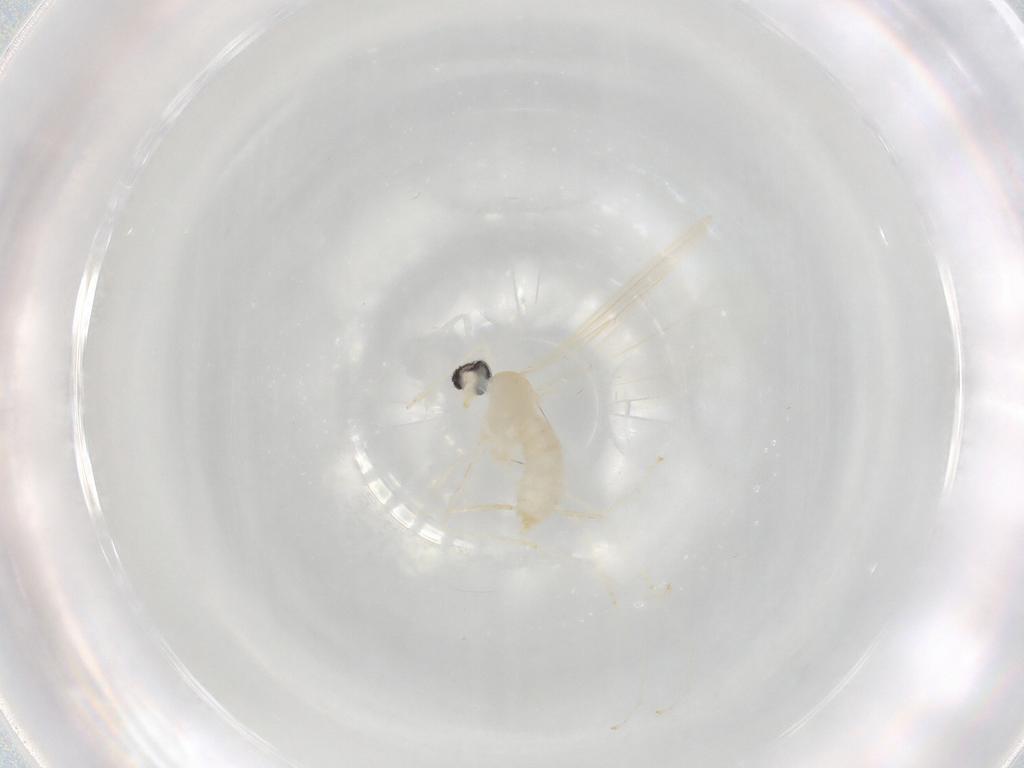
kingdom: Animalia
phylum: Arthropoda
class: Insecta
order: Diptera
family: Cecidomyiidae
